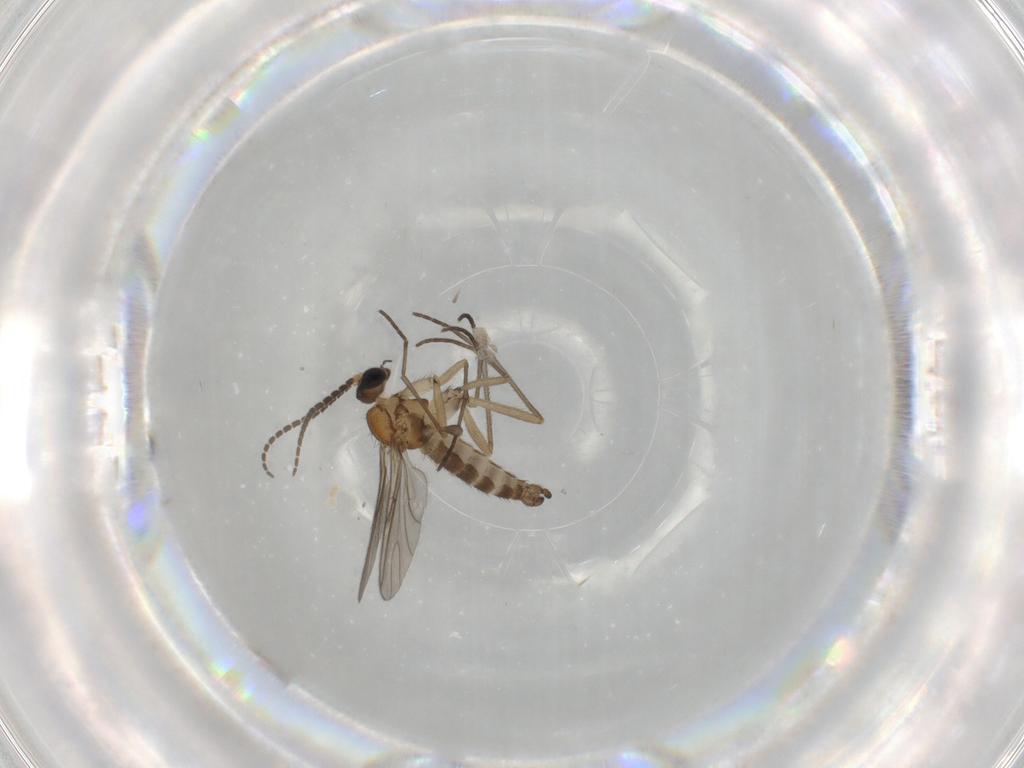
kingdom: Animalia
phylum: Arthropoda
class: Insecta
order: Diptera
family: Sciaridae
